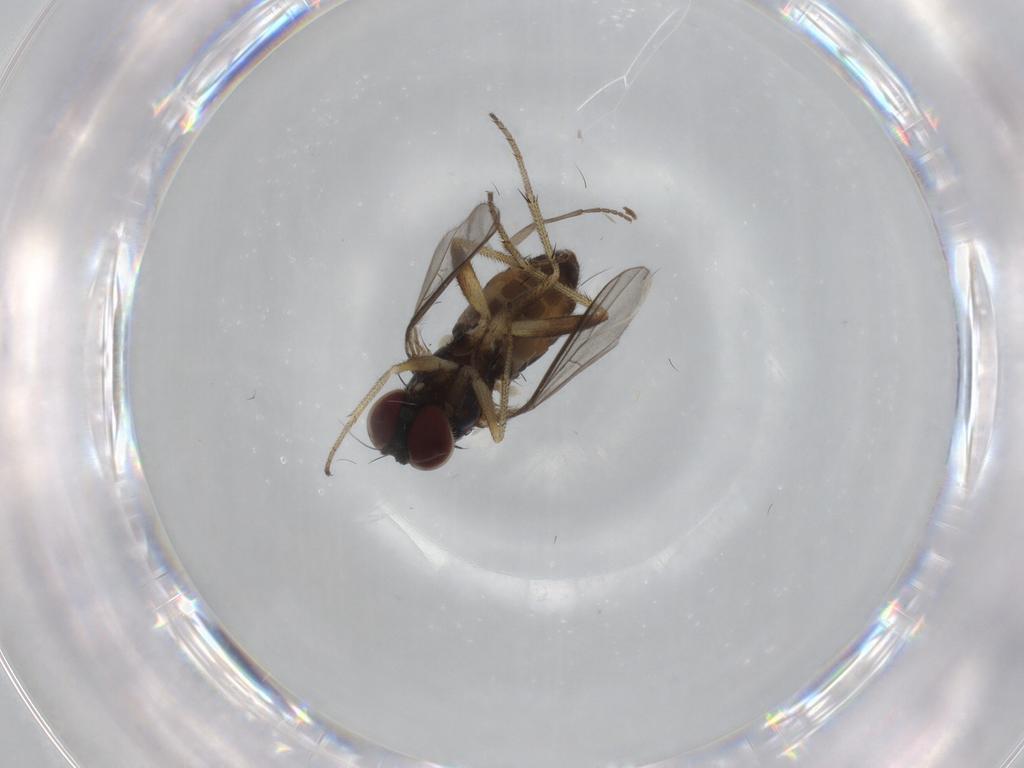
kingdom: Animalia
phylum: Arthropoda
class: Insecta
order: Diptera
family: Sciaridae
